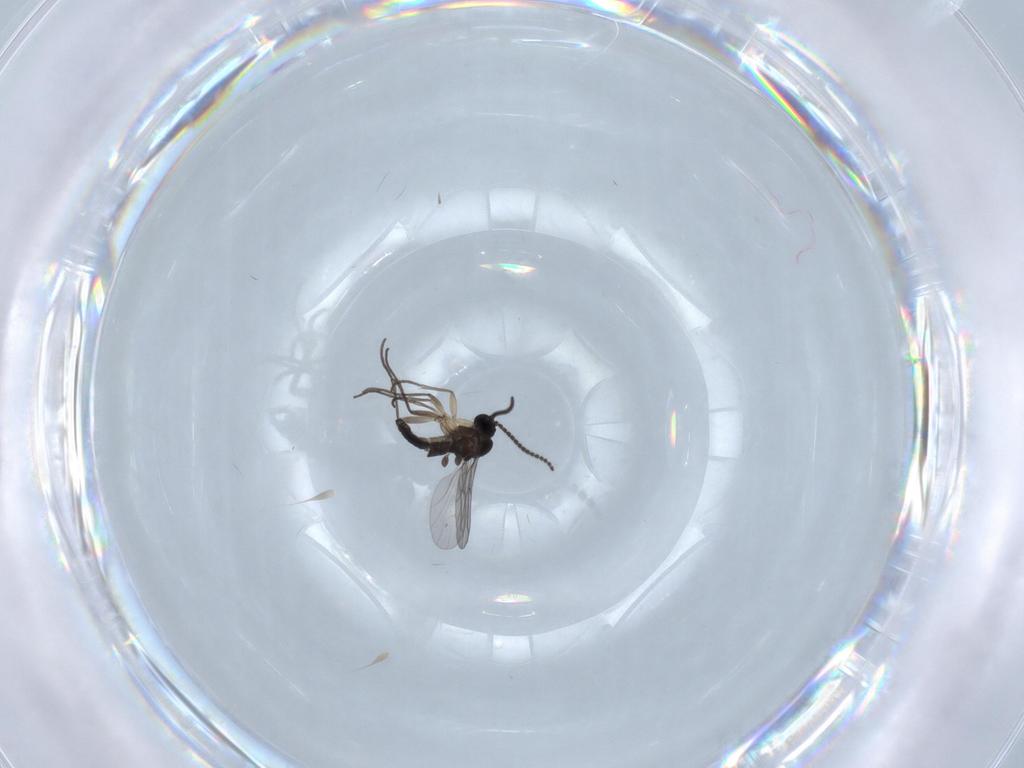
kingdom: Animalia
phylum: Arthropoda
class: Insecta
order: Diptera
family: Sciaridae
